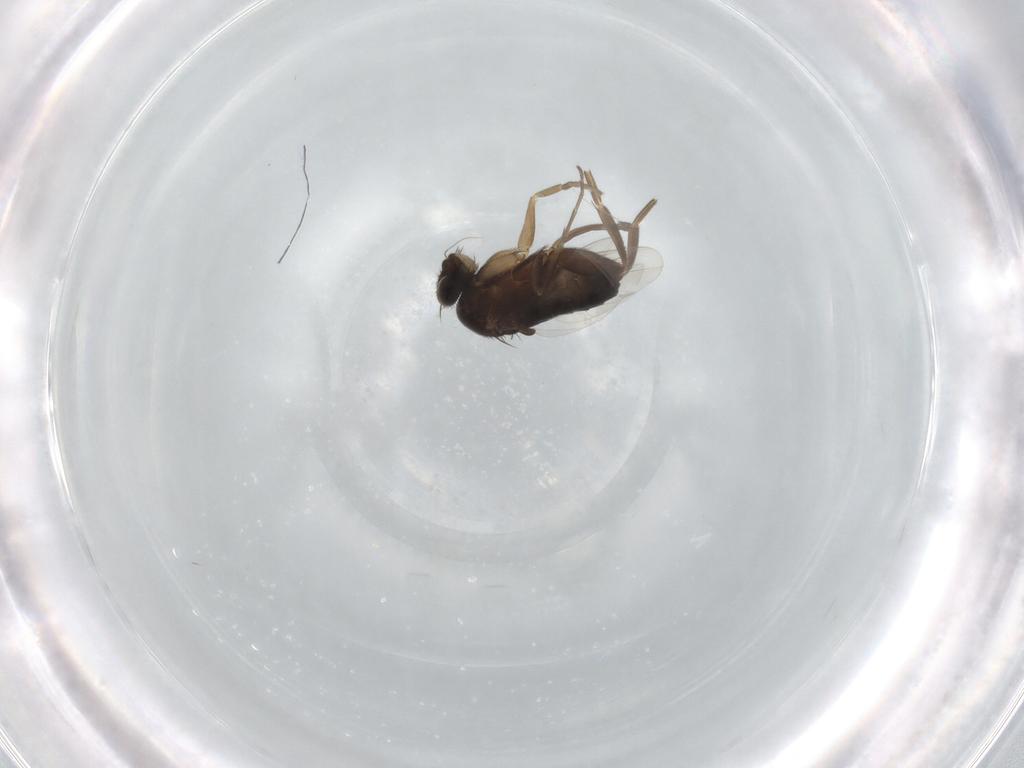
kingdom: Animalia
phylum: Arthropoda
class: Insecta
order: Diptera
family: Phoridae
